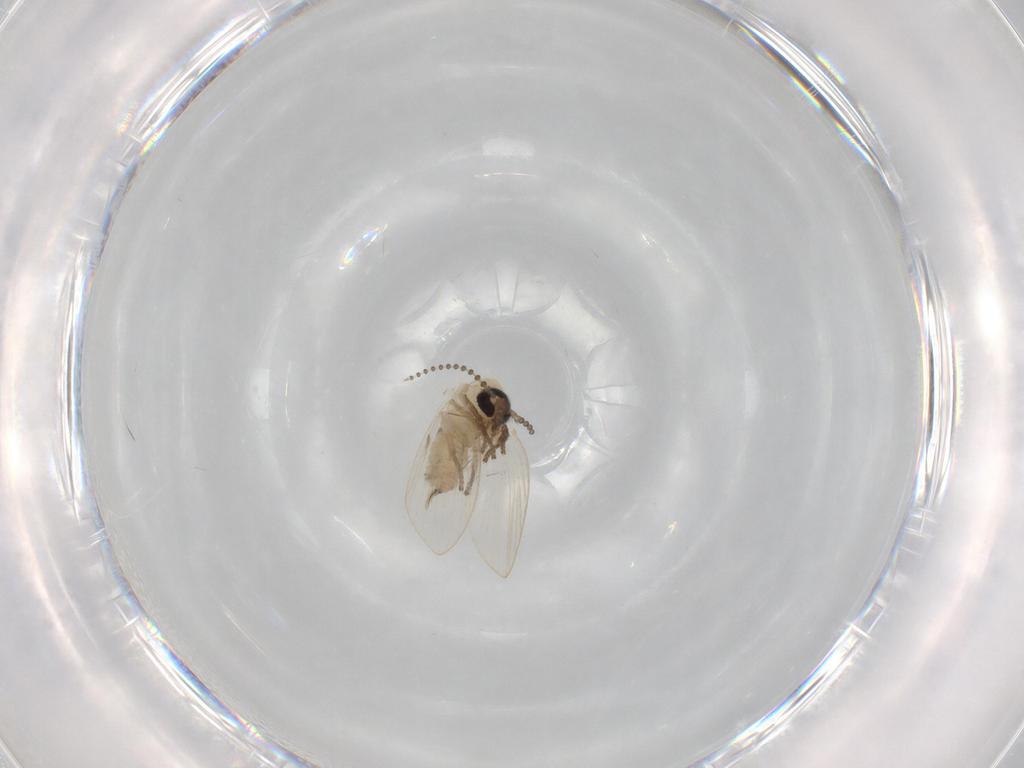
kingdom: Animalia
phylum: Arthropoda
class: Insecta
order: Diptera
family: Psychodidae
